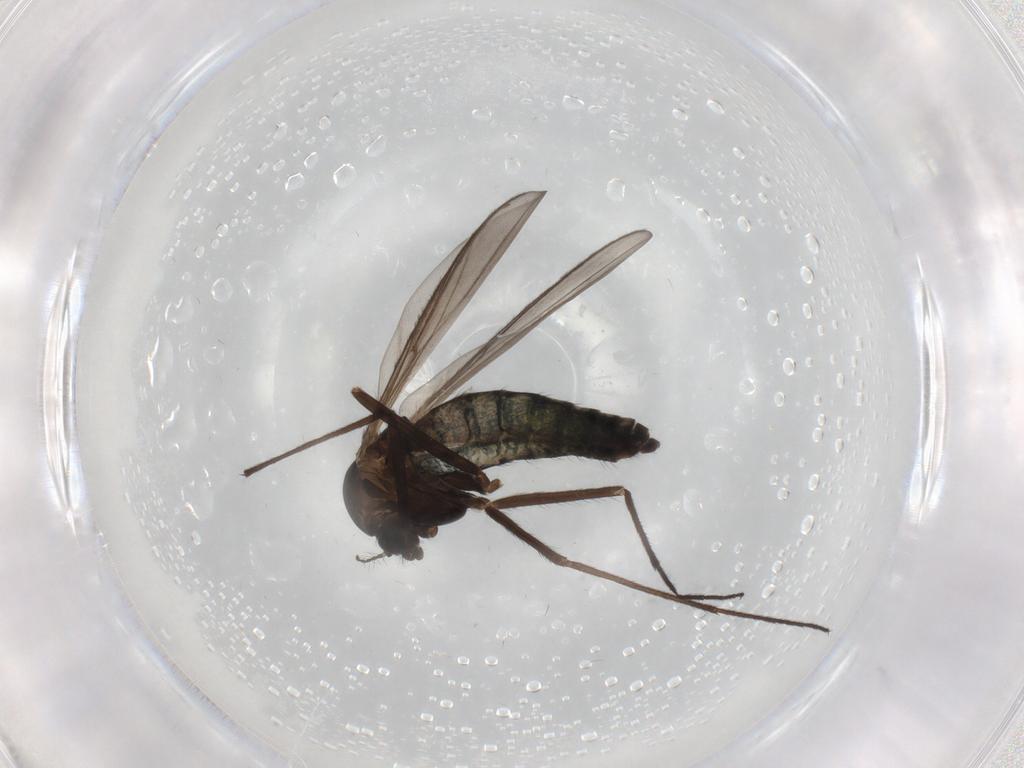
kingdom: Animalia
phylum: Arthropoda
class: Insecta
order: Diptera
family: Chironomidae
